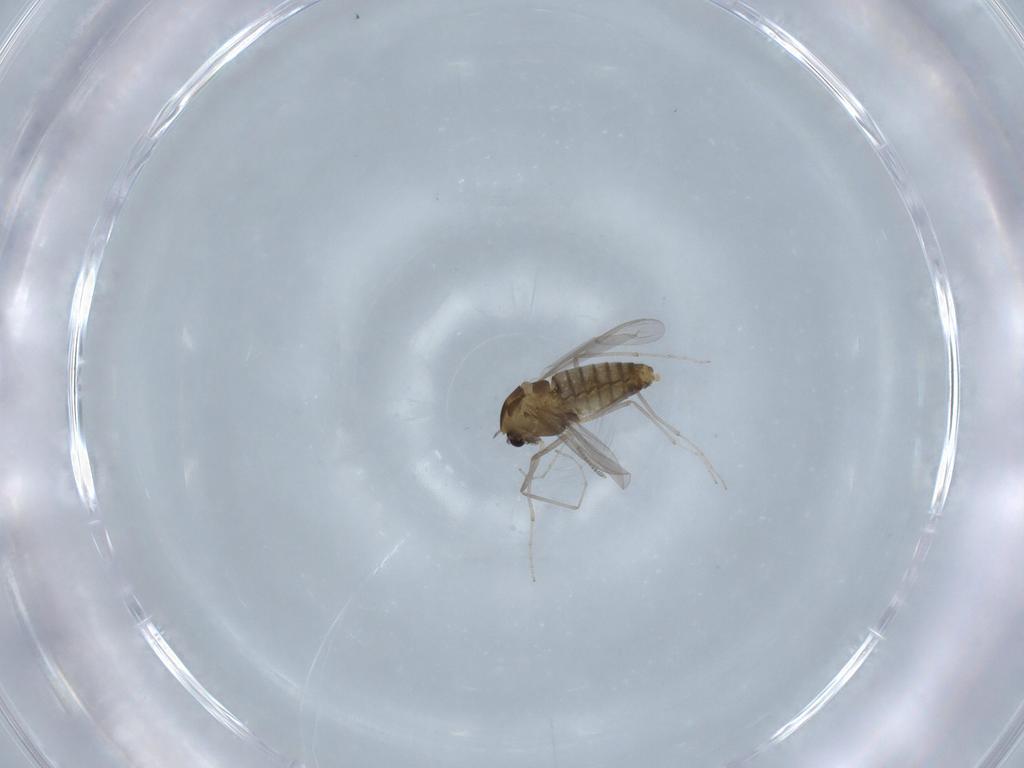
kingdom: Animalia
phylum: Arthropoda
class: Insecta
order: Diptera
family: Chironomidae
